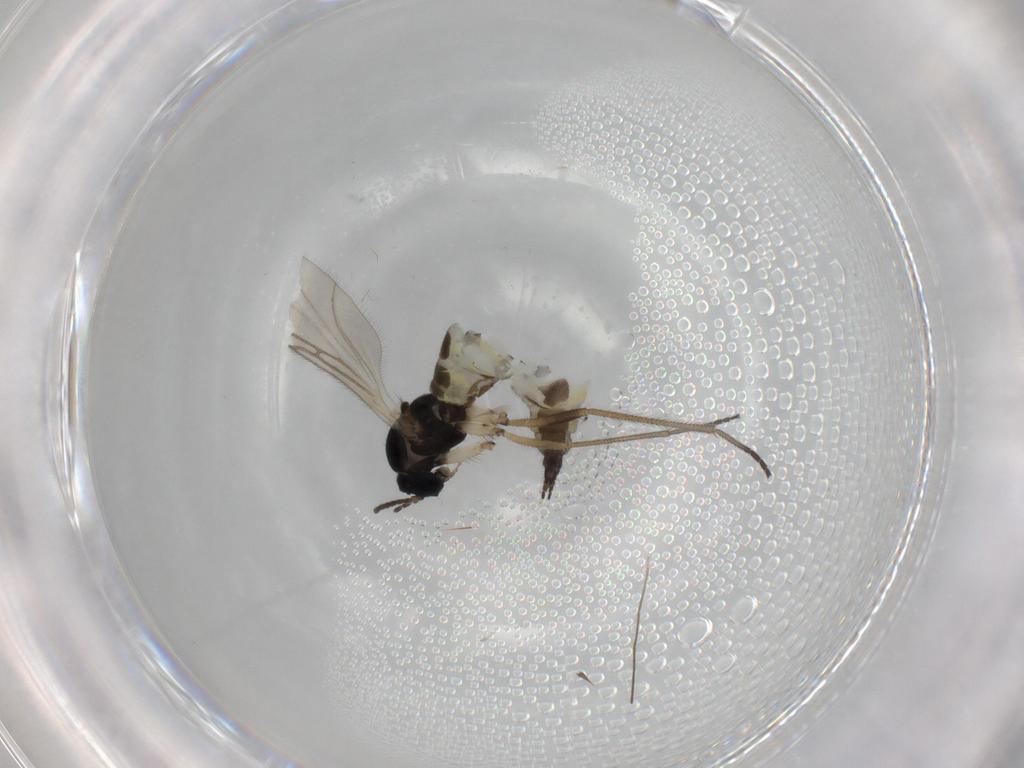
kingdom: Animalia
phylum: Arthropoda
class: Insecta
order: Diptera
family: Sciaridae
